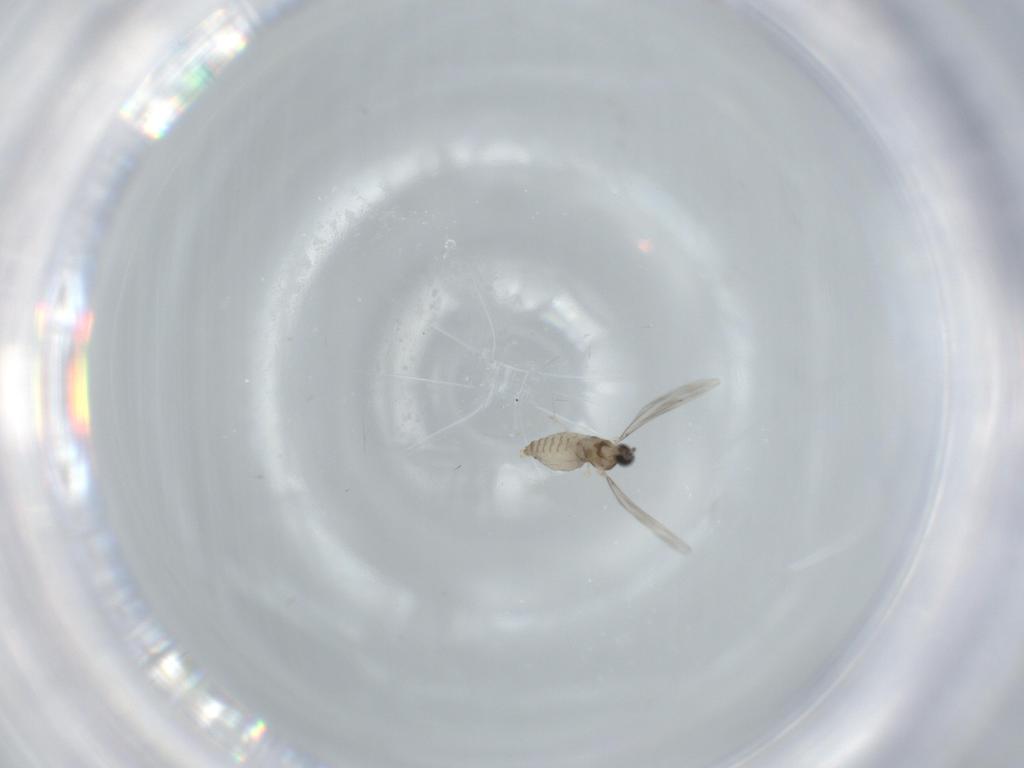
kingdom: Animalia
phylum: Arthropoda
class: Insecta
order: Diptera
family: Cecidomyiidae
